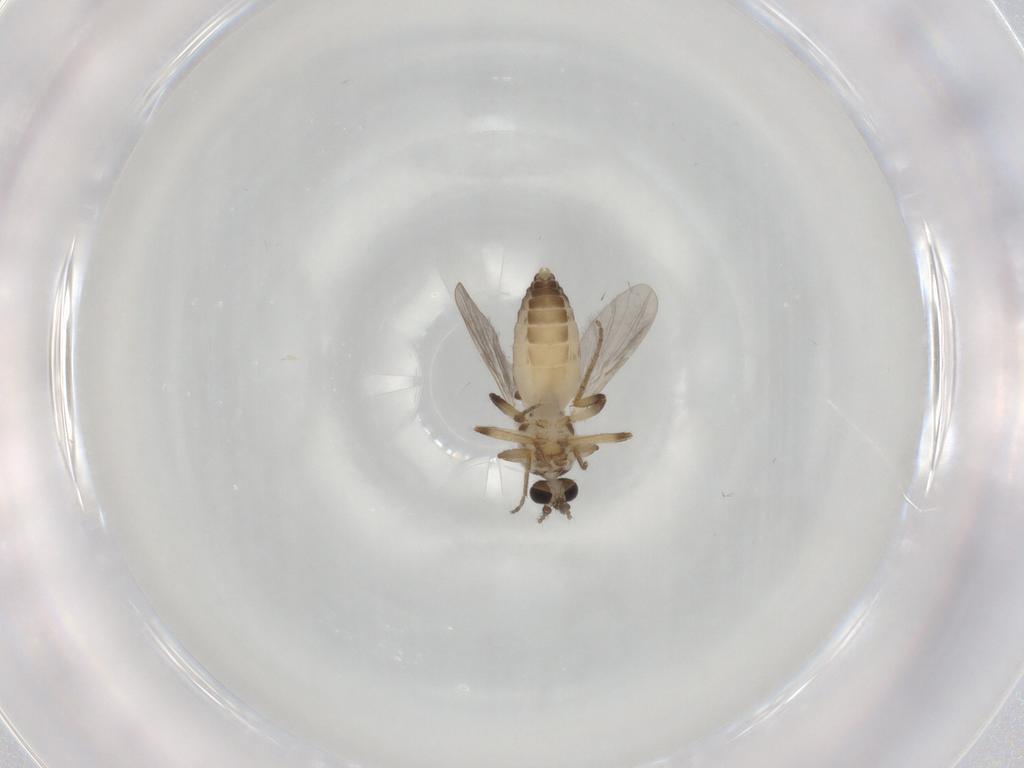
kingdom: Animalia
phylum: Arthropoda
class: Insecta
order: Diptera
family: Ceratopogonidae
